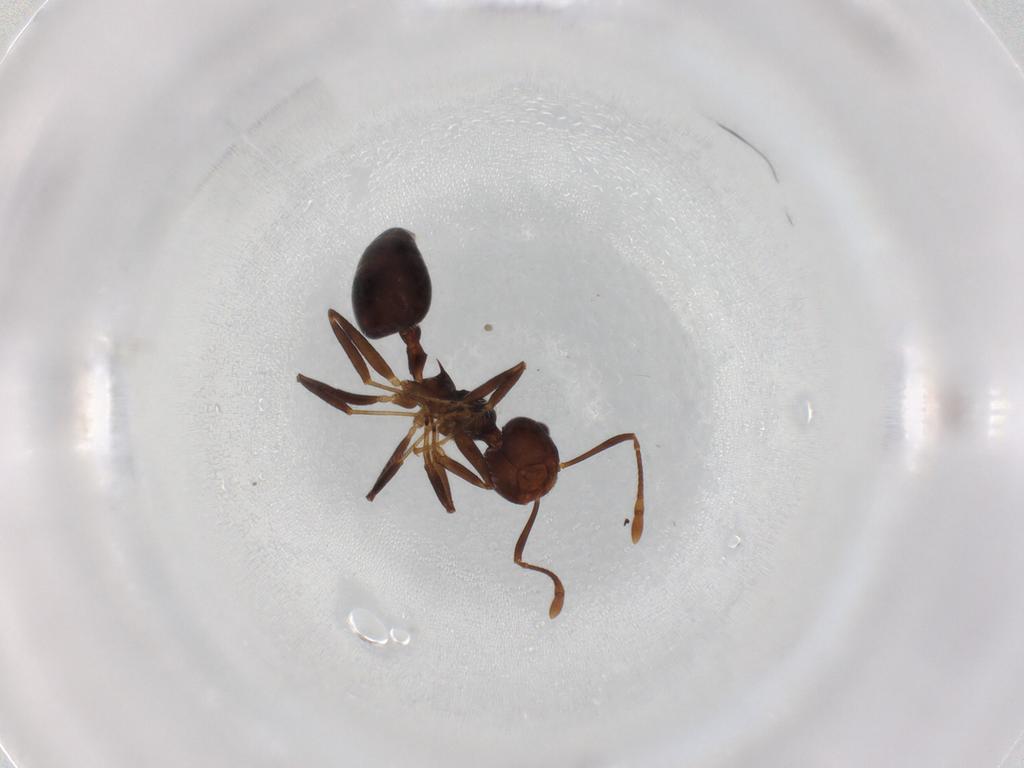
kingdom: Animalia
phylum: Arthropoda
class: Insecta
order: Hymenoptera
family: Formicidae
